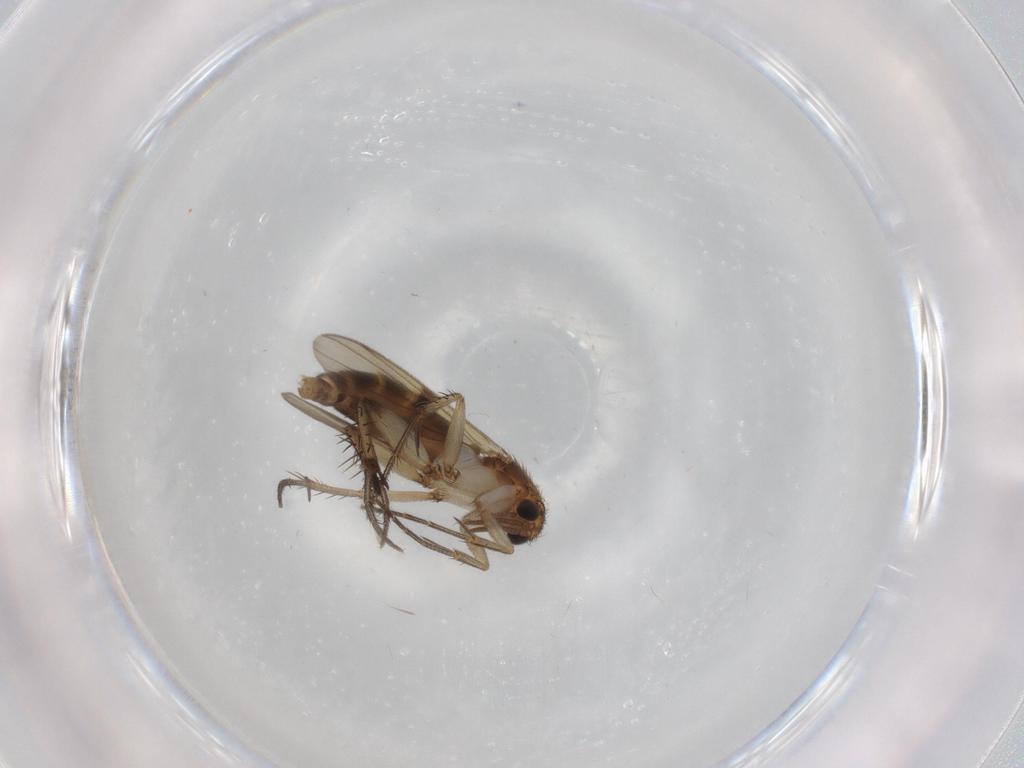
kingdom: Animalia
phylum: Arthropoda
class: Insecta
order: Diptera
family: Mycetophilidae
